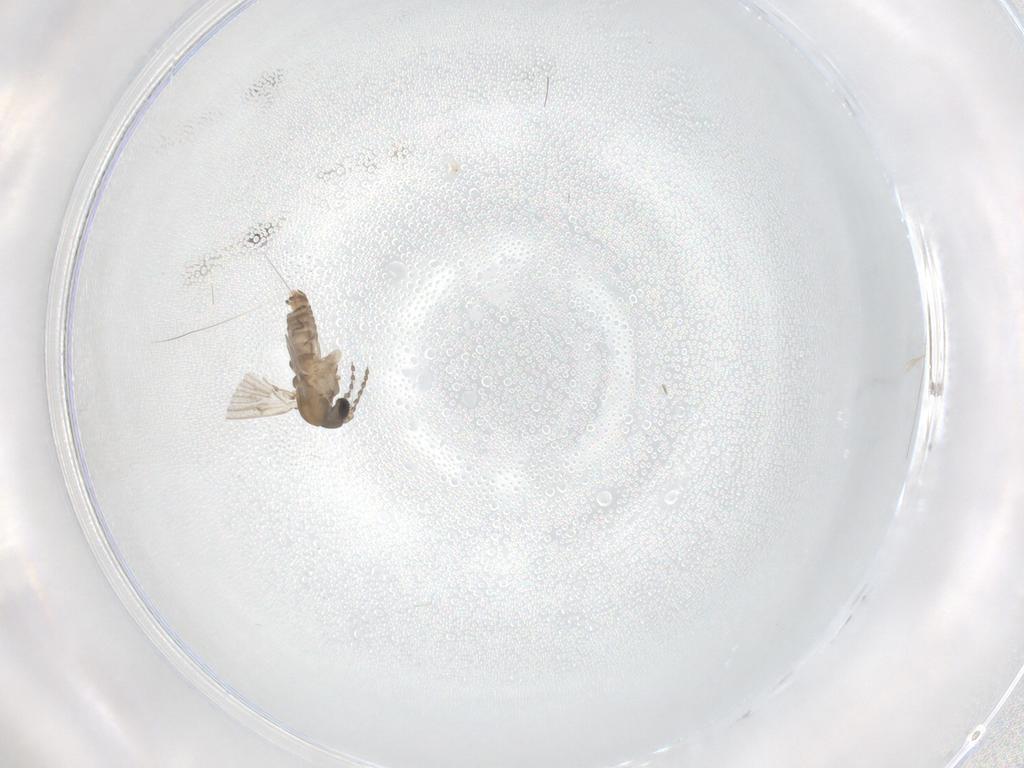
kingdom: Animalia
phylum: Arthropoda
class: Insecta
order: Diptera
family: Psychodidae
